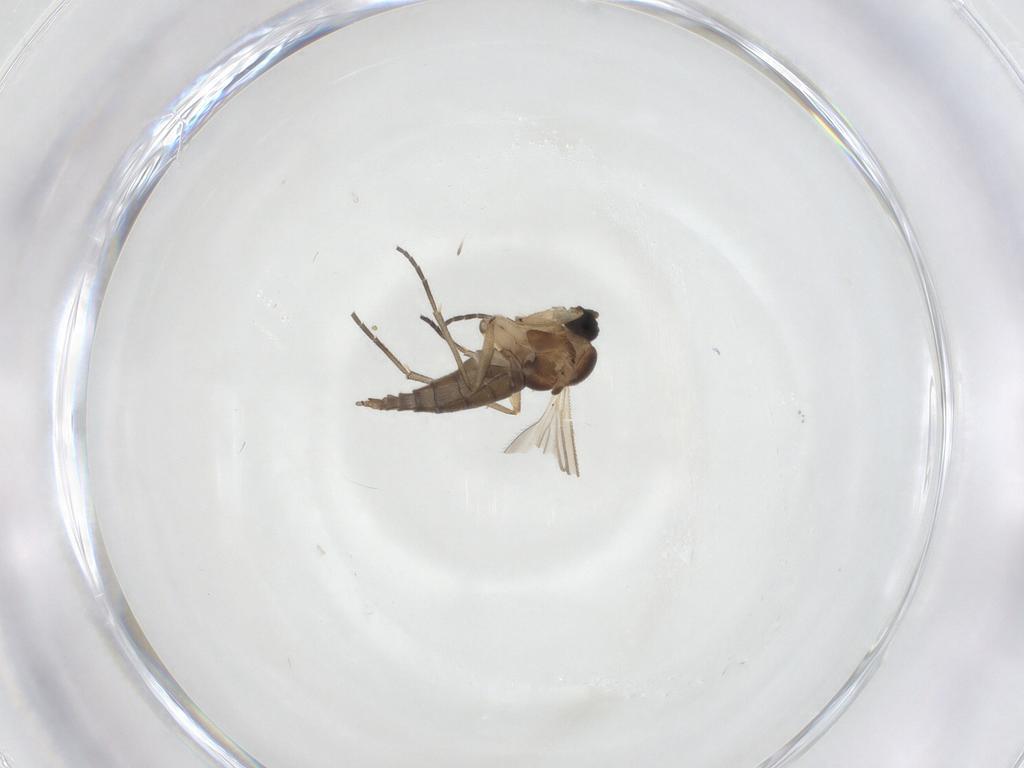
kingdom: Animalia
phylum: Arthropoda
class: Insecta
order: Diptera
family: Sciaridae
